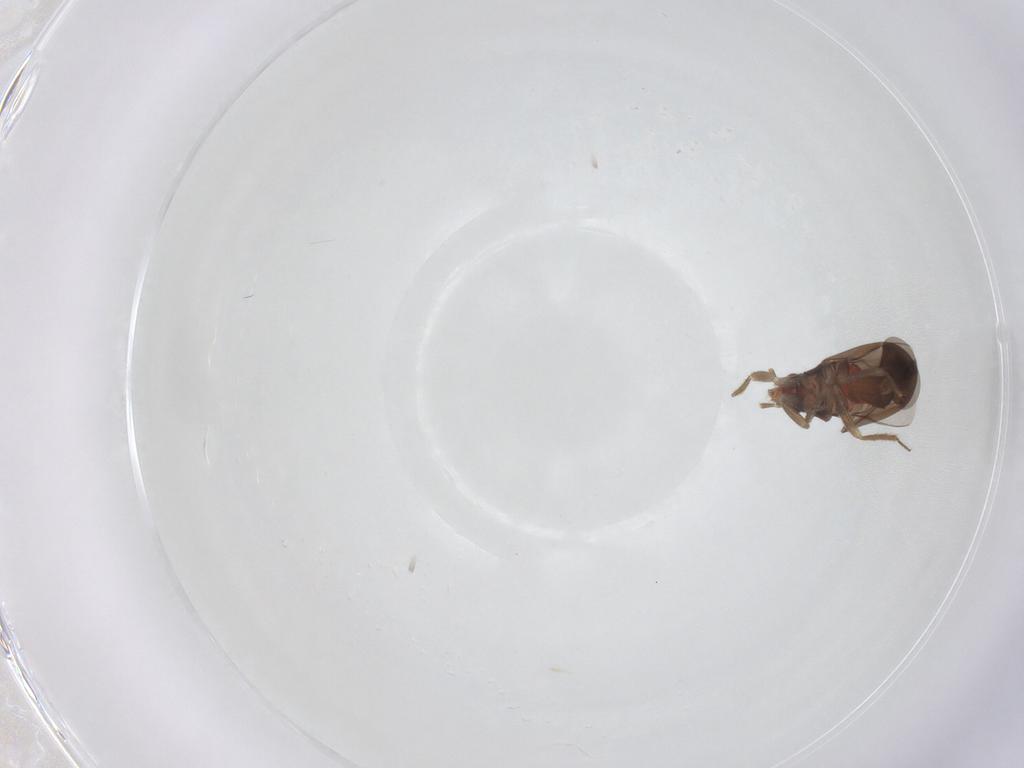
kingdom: Animalia
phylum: Arthropoda
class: Insecta
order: Hemiptera
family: Ceratocombidae
